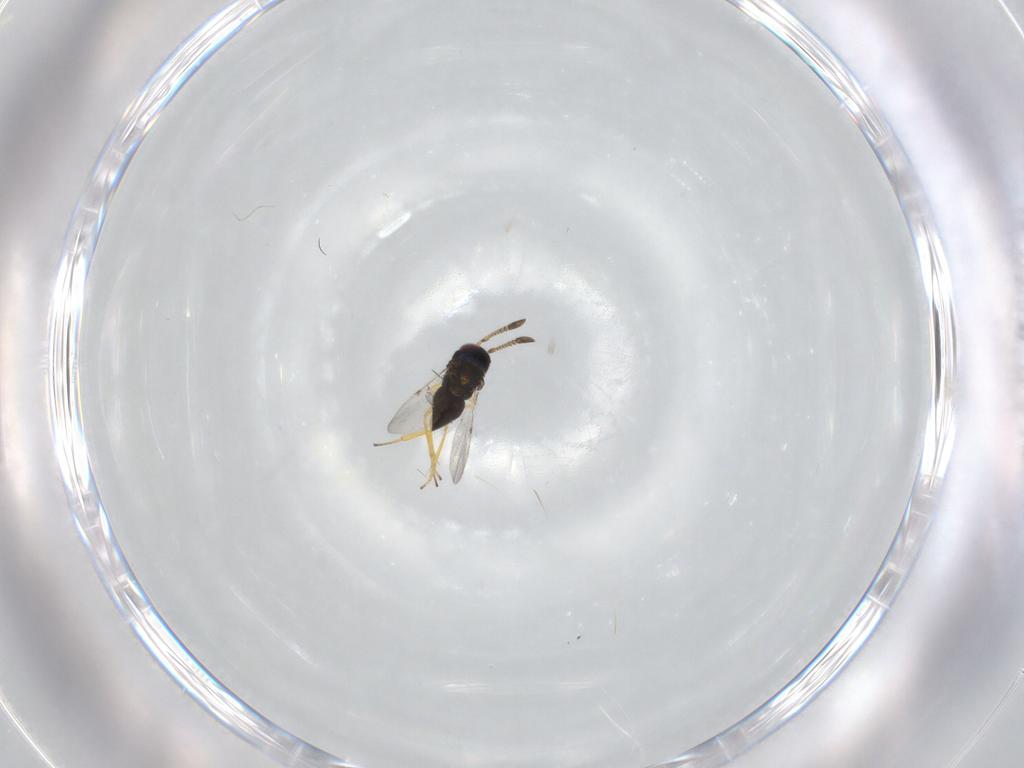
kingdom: Animalia
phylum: Arthropoda
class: Insecta
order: Hymenoptera
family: Encyrtidae
